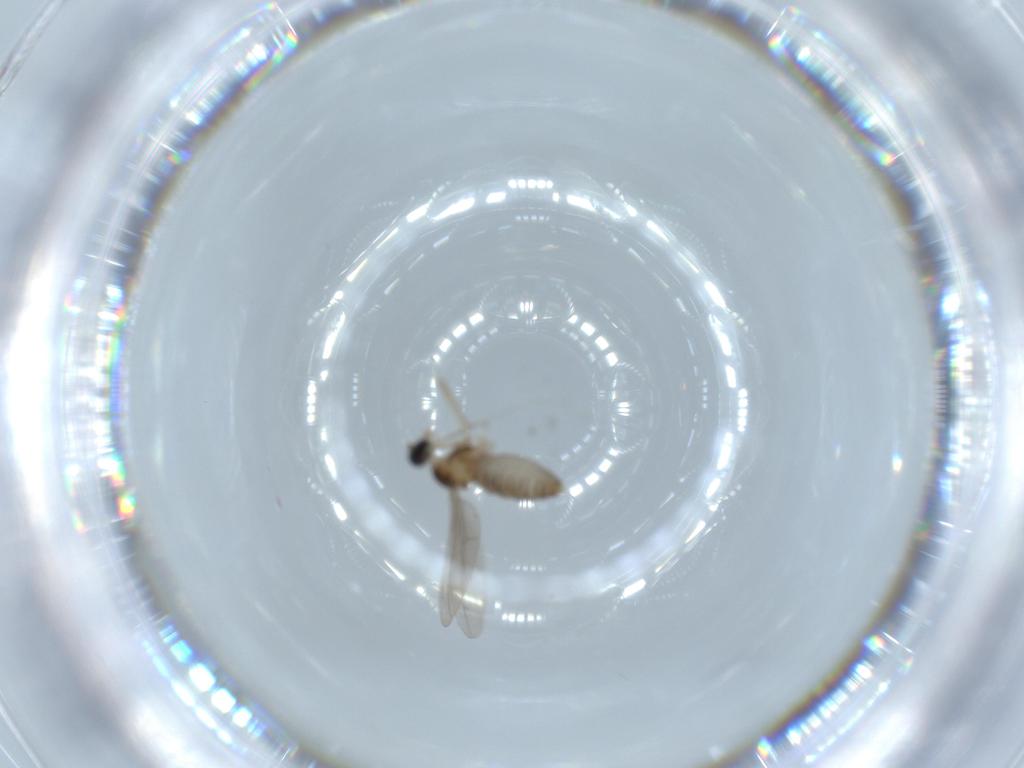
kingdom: Animalia
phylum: Arthropoda
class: Insecta
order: Diptera
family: Cecidomyiidae
